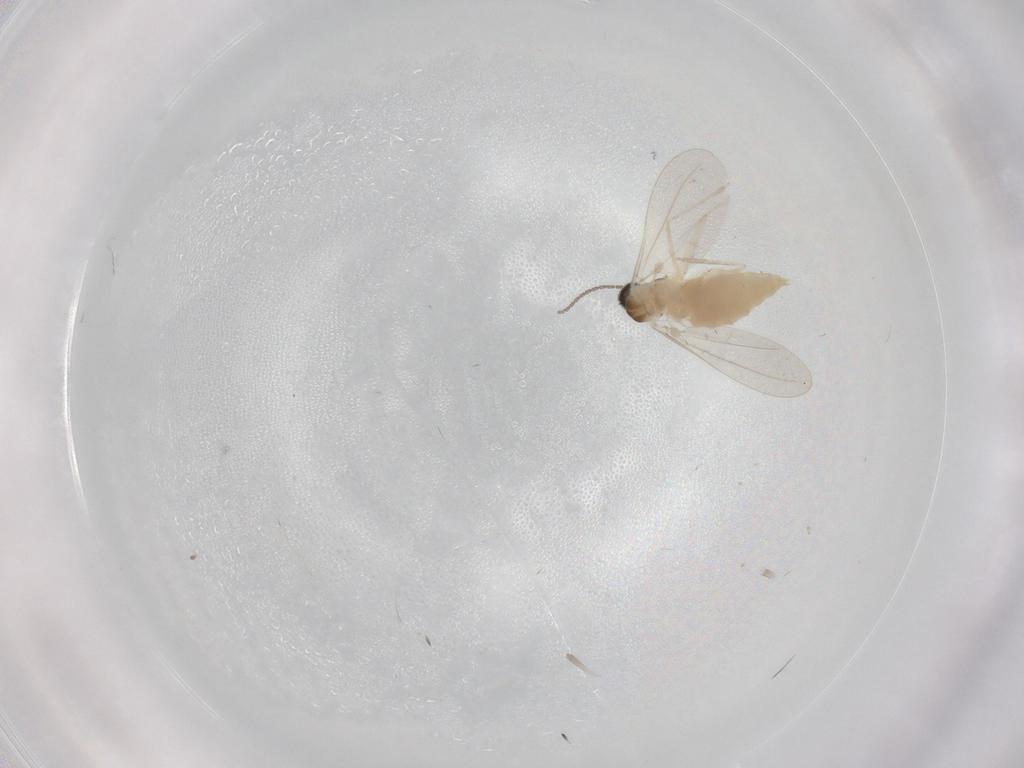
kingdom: Animalia
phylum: Arthropoda
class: Insecta
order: Diptera
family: Cecidomyiidae
